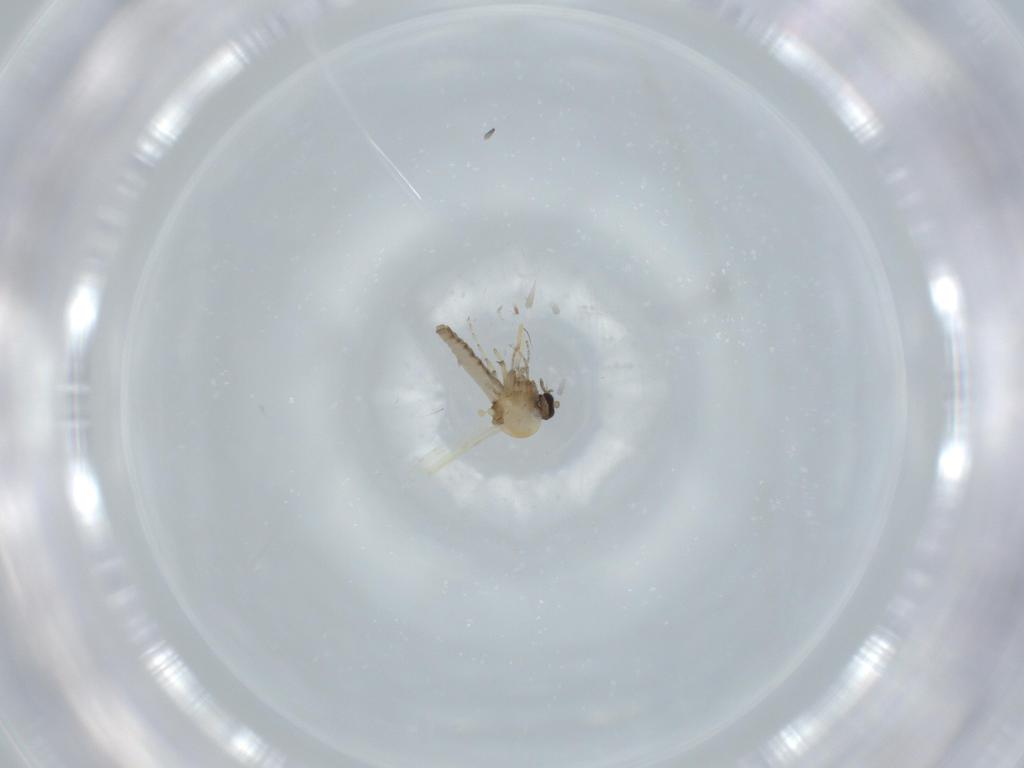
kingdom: Animalia
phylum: Arthropoda
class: Insecta
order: Diptera
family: Ceratopogonidae
